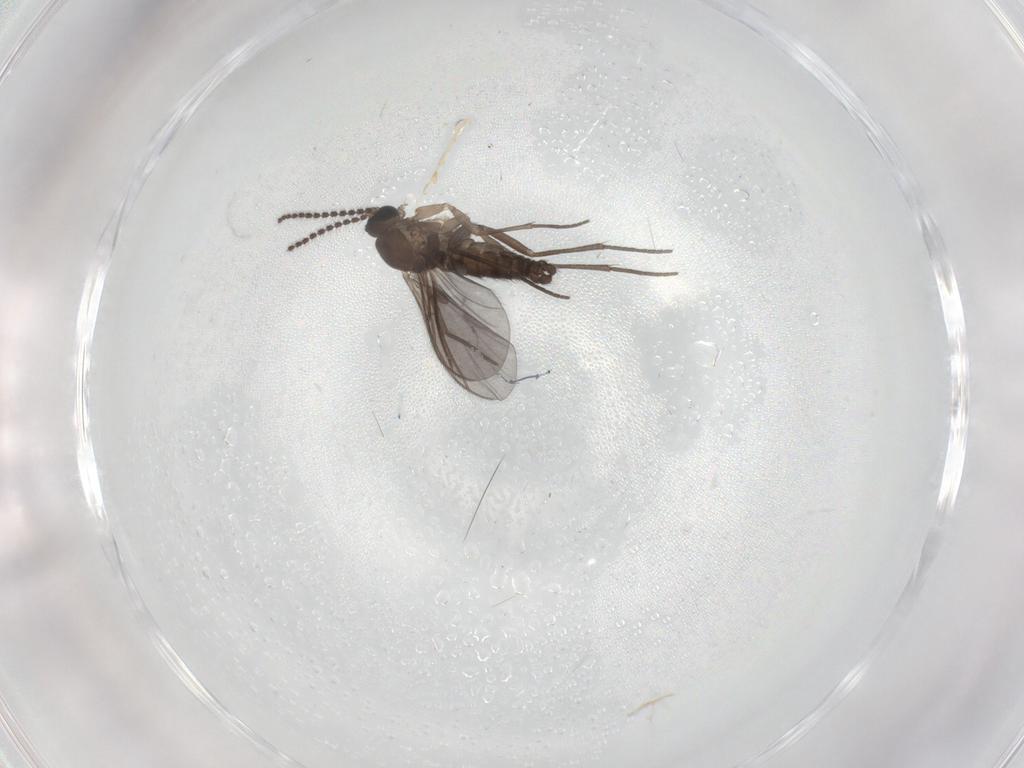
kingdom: Animalia
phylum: Arthropoda
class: Insecta
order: Diptera
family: Sciaridae
